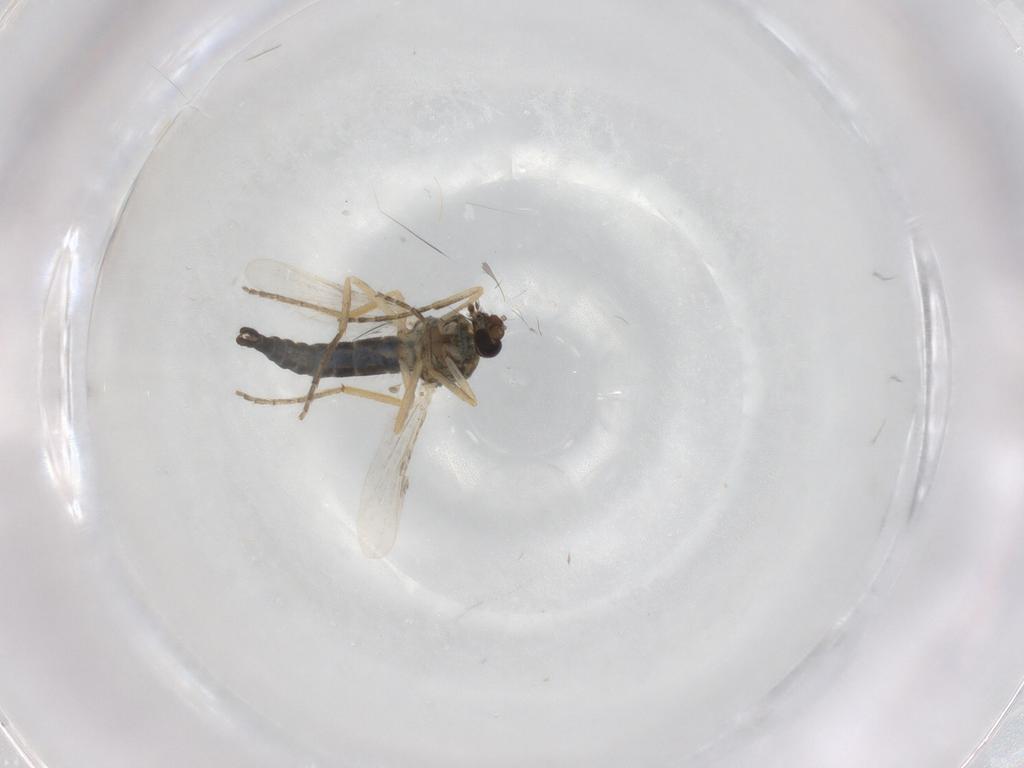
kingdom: Animalia
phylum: Arthropoda
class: Insecta
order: Diptera
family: Ceratopogonidae
